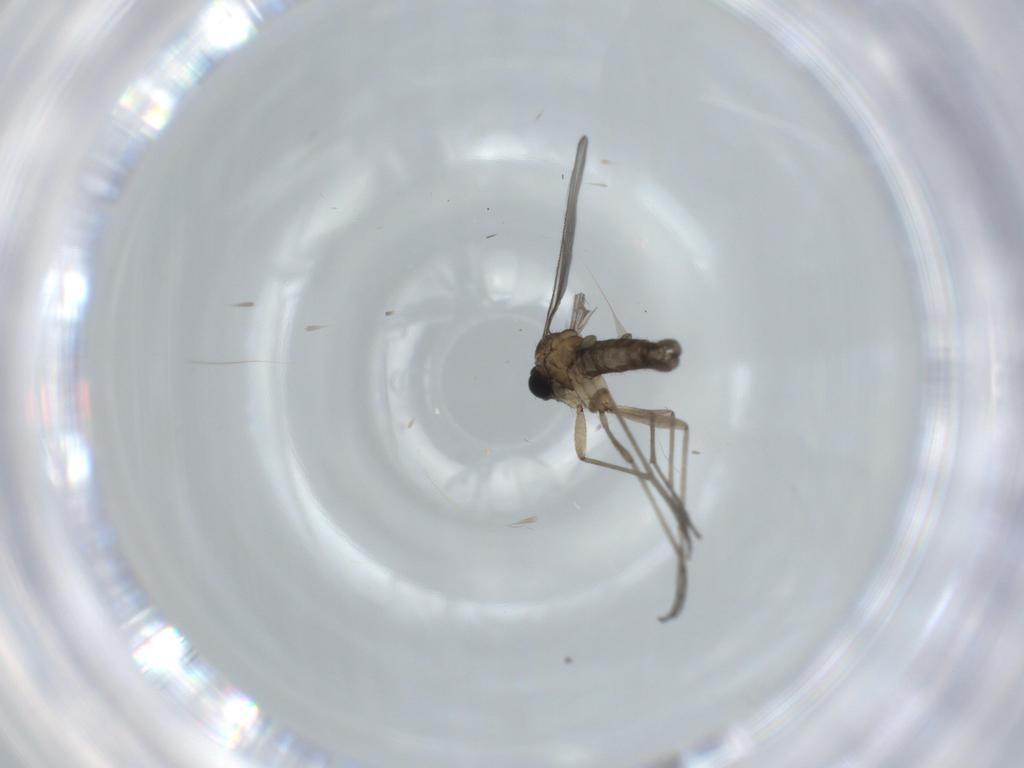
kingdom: Animalia
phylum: Arthropoda
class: Insecta
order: Diptera
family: Sciaridae
